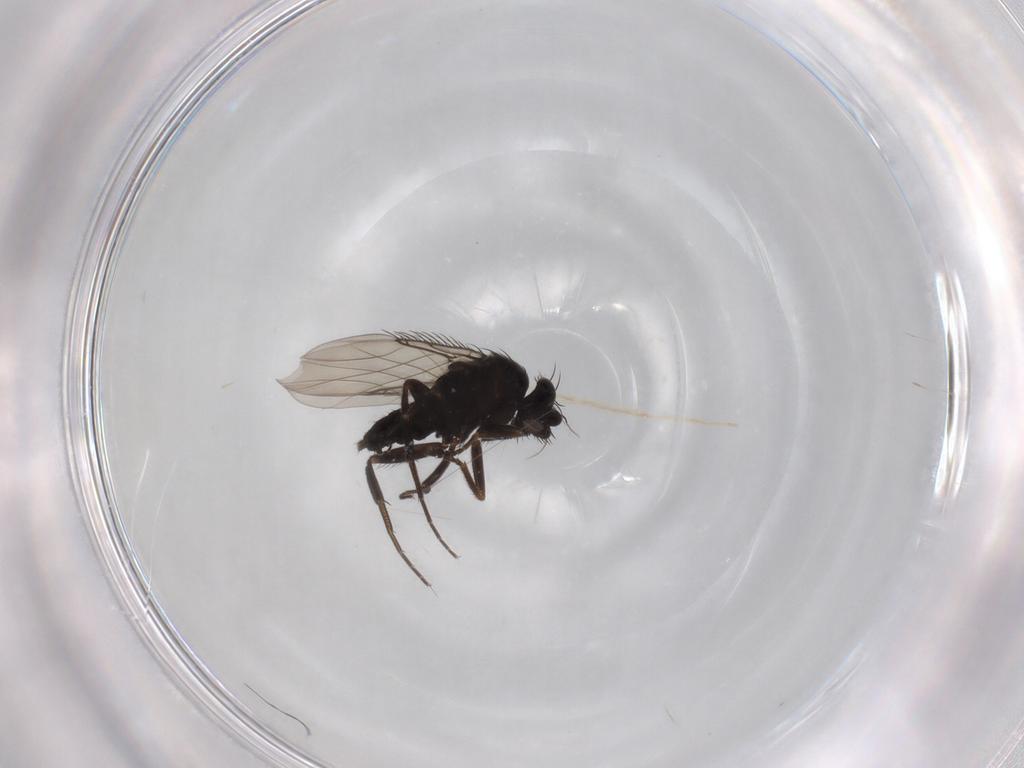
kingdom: Animalia
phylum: Arthropoda
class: Insecta
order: Diptera
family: Phoridae
